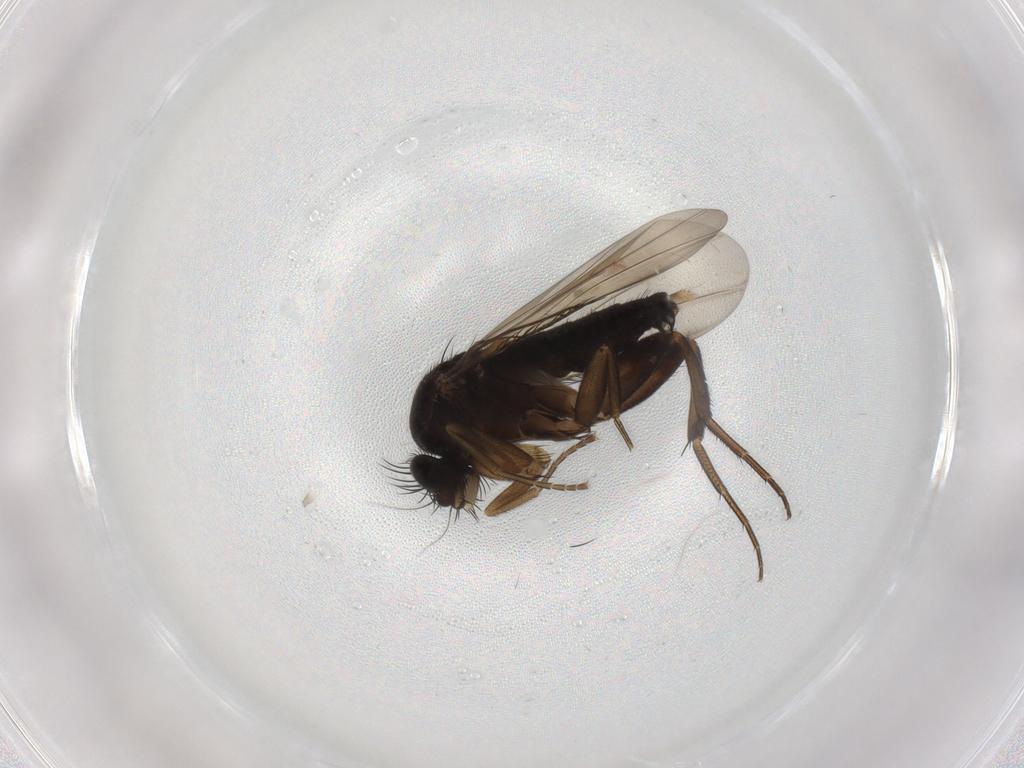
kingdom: Animalia
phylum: Arthropoda
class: Insecta
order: Diptera
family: Phoridae
